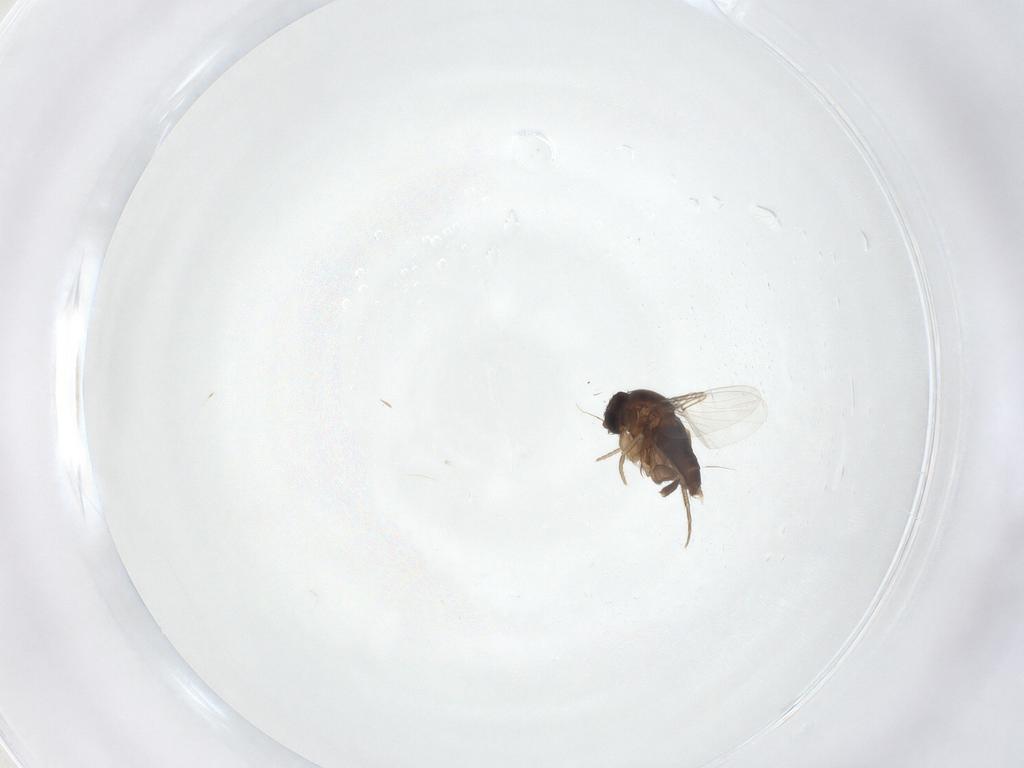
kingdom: Animalia
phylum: Arthropoda
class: Insecta
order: Diptera
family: Phoridae
